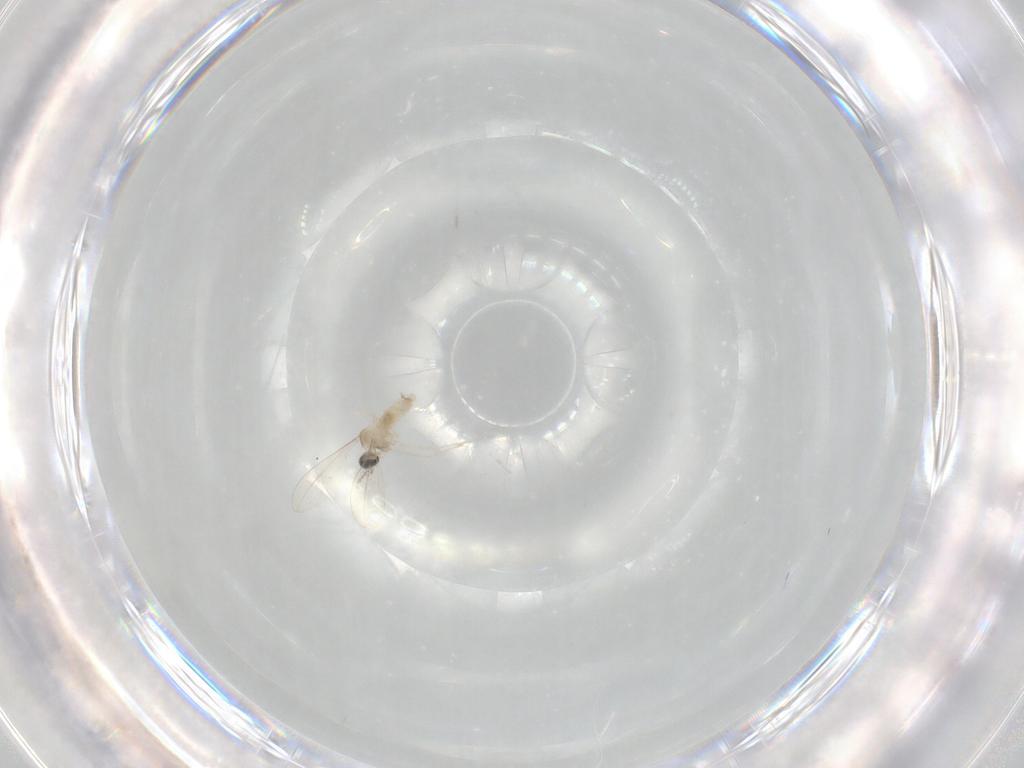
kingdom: Animalia
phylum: Arthropoda
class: Insecta
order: Diptera
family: Cecidomyiidae
